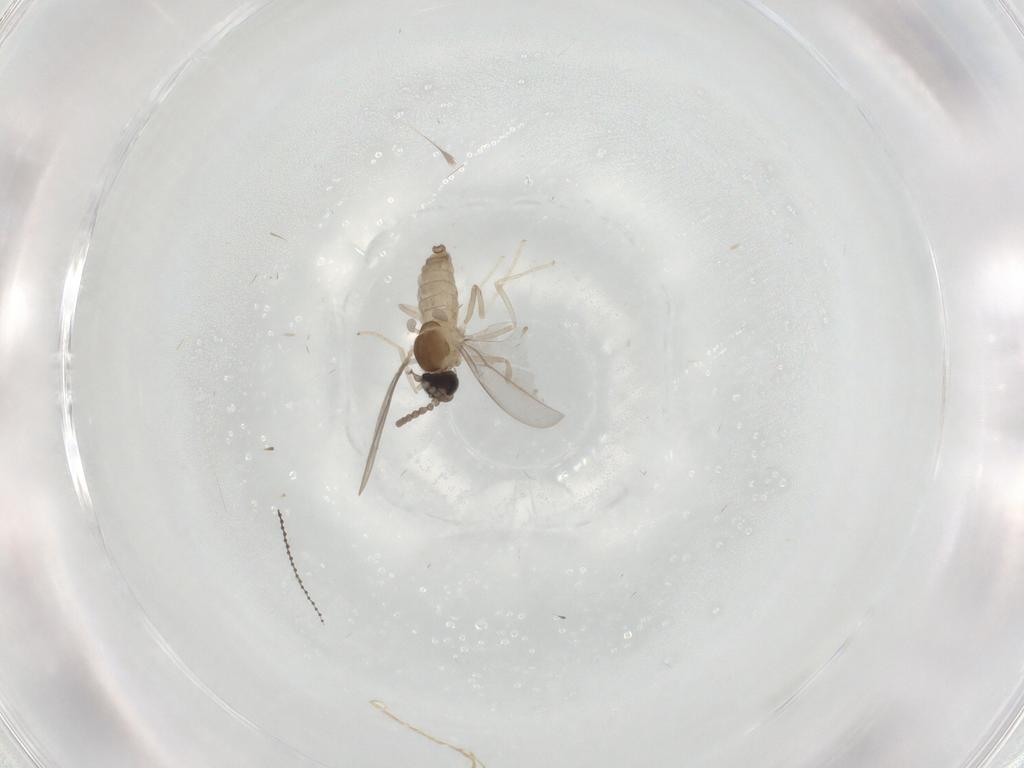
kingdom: Animalia
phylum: Arthropoda
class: Insecta
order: Diptera
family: Cecidomyiidae
